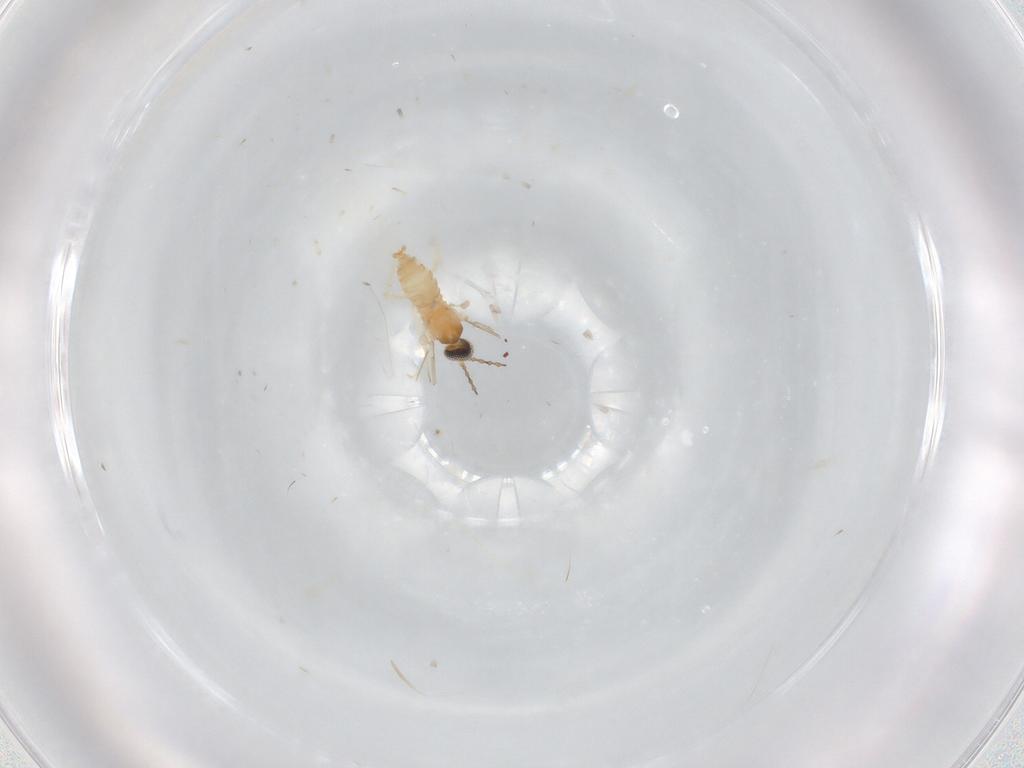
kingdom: Animalia
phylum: Arthropoda
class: Insecta
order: Diptera
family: Cecidomyiidae
